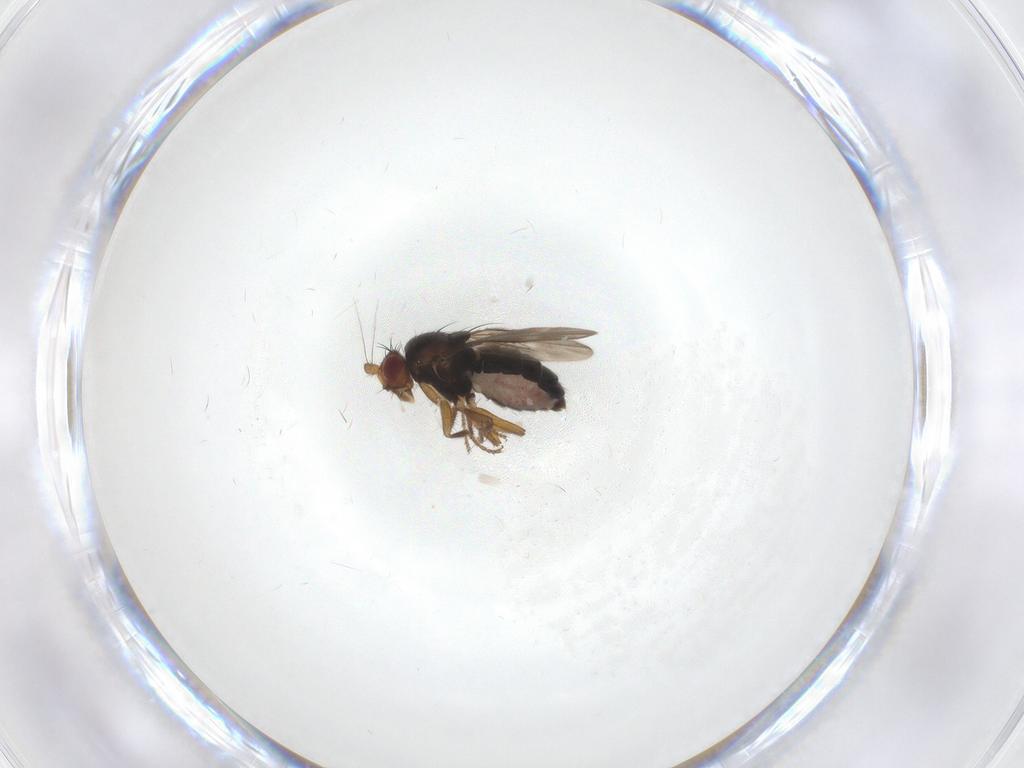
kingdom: Animalia
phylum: Arthropoda
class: Insecta
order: Diptera
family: Sphaeroceridae
